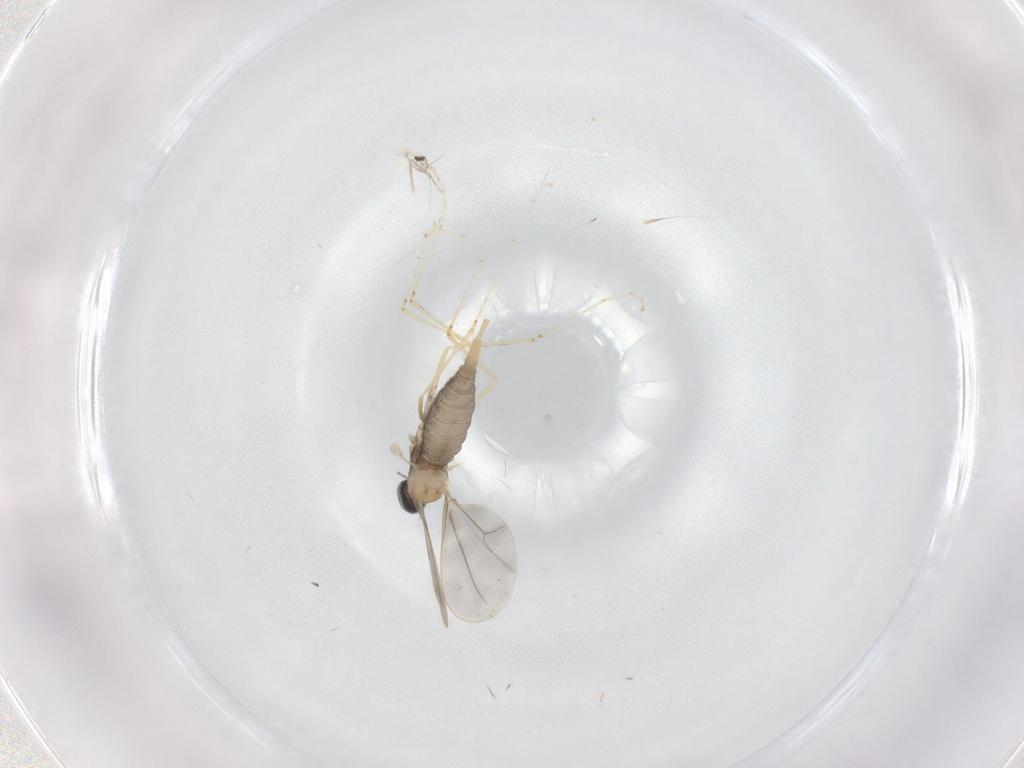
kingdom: Animalia
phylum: Arthropoda
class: Insecta
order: Diptera
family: Cecidomyiidae
